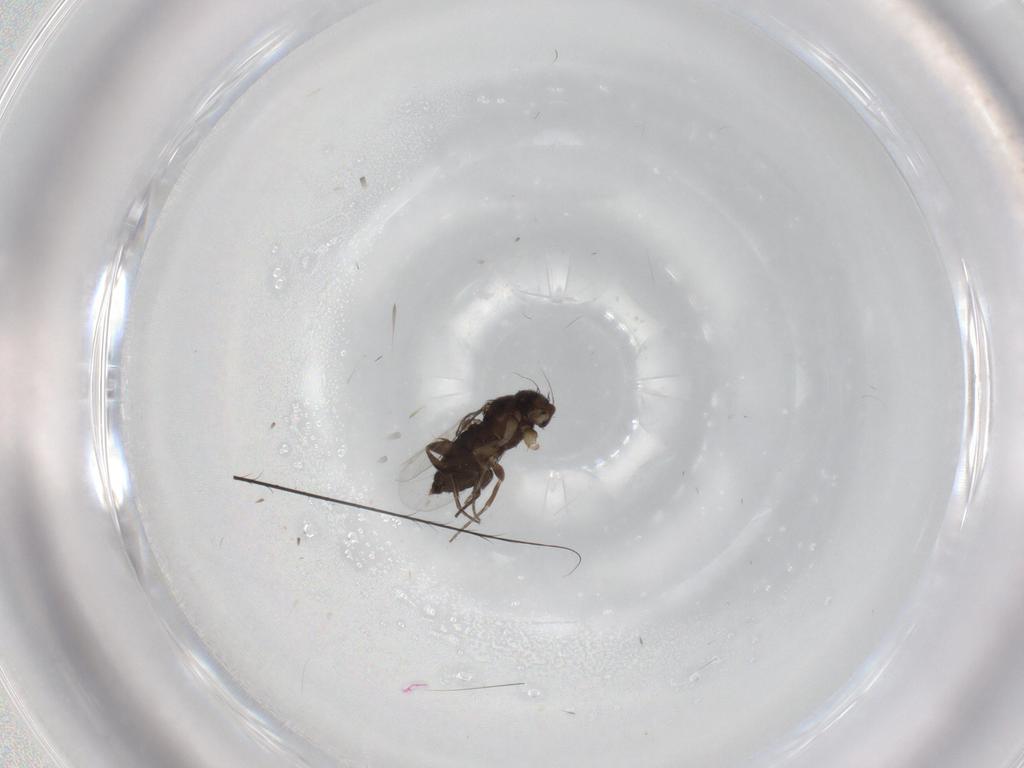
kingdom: Animalia
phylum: Arthropoda
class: Insecta
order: Diptera
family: Phoridae
